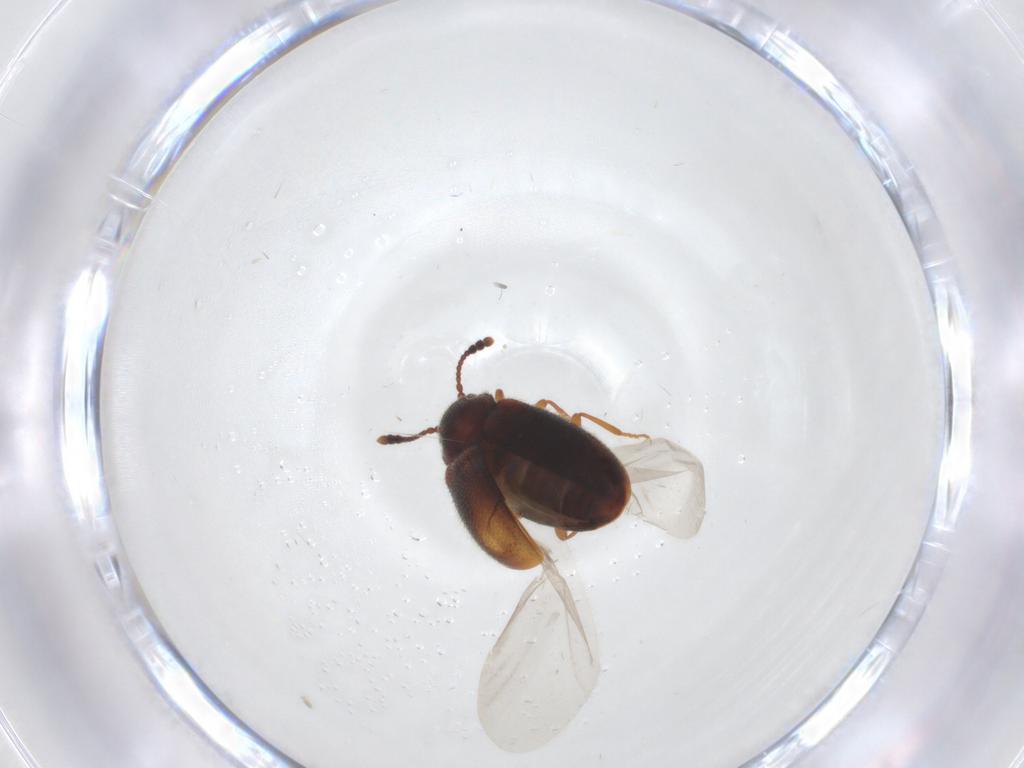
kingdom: Animalia
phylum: Arthropoda
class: Insecta
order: Coleoptera
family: Cryptophagidae
